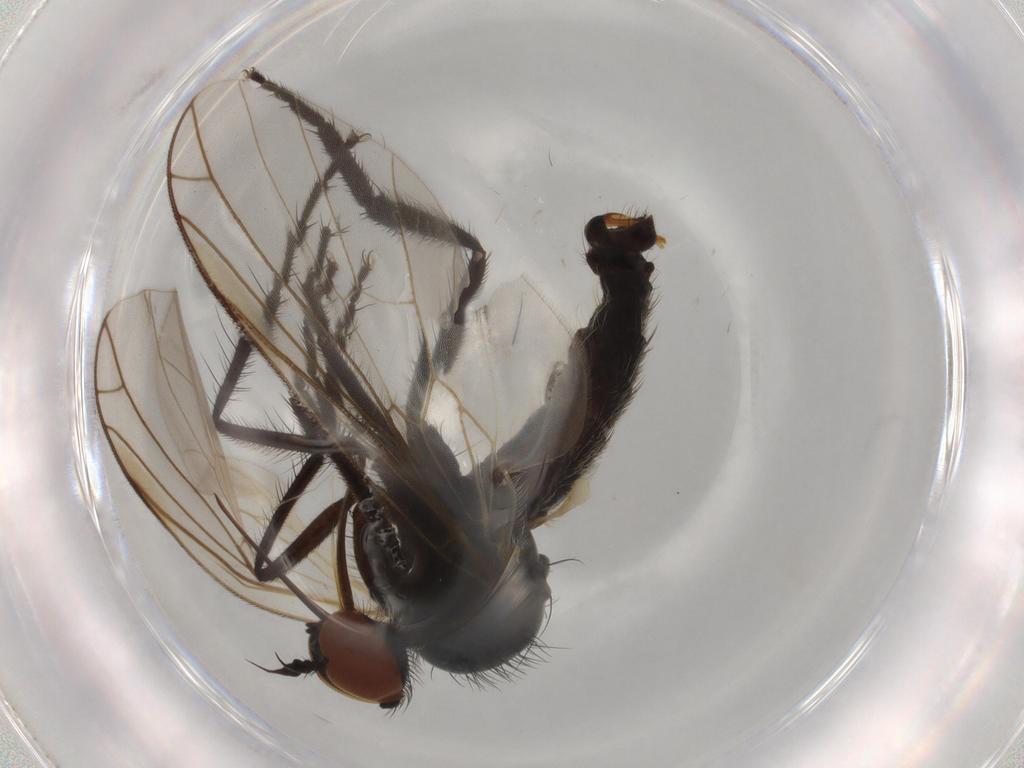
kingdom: Animalia
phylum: Arthropoda
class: Insecta
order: Diptera
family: Empididae
